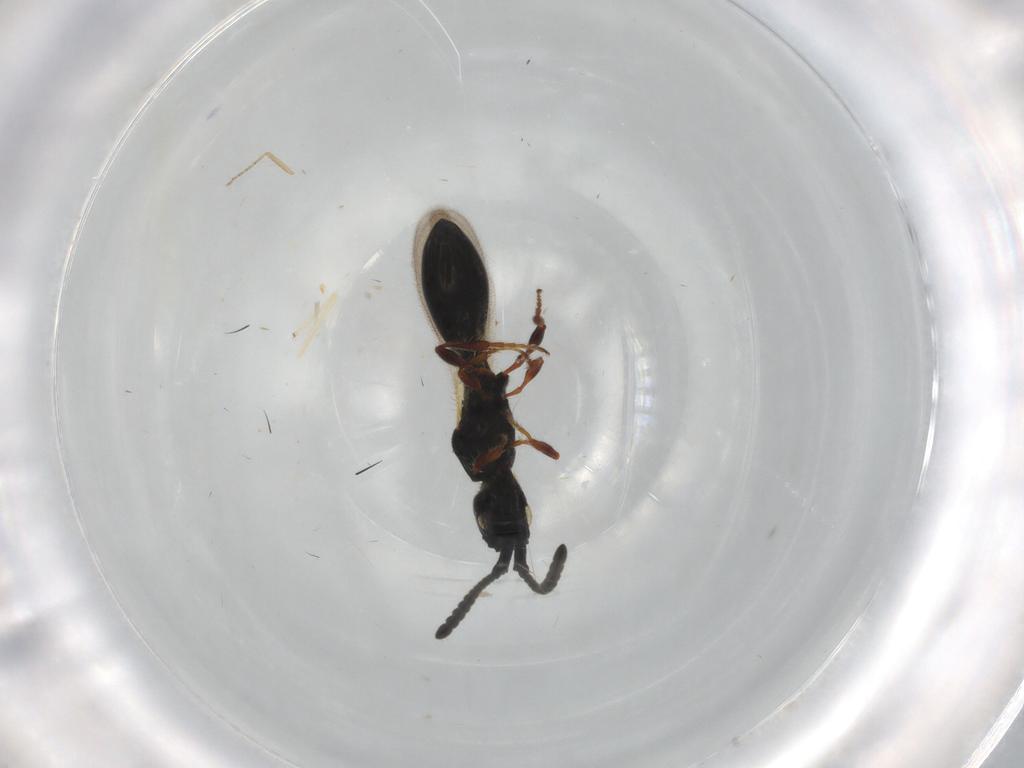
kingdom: Animalia
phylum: Arthropoda
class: Insecta
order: Hymenoptera
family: Diapriidae
